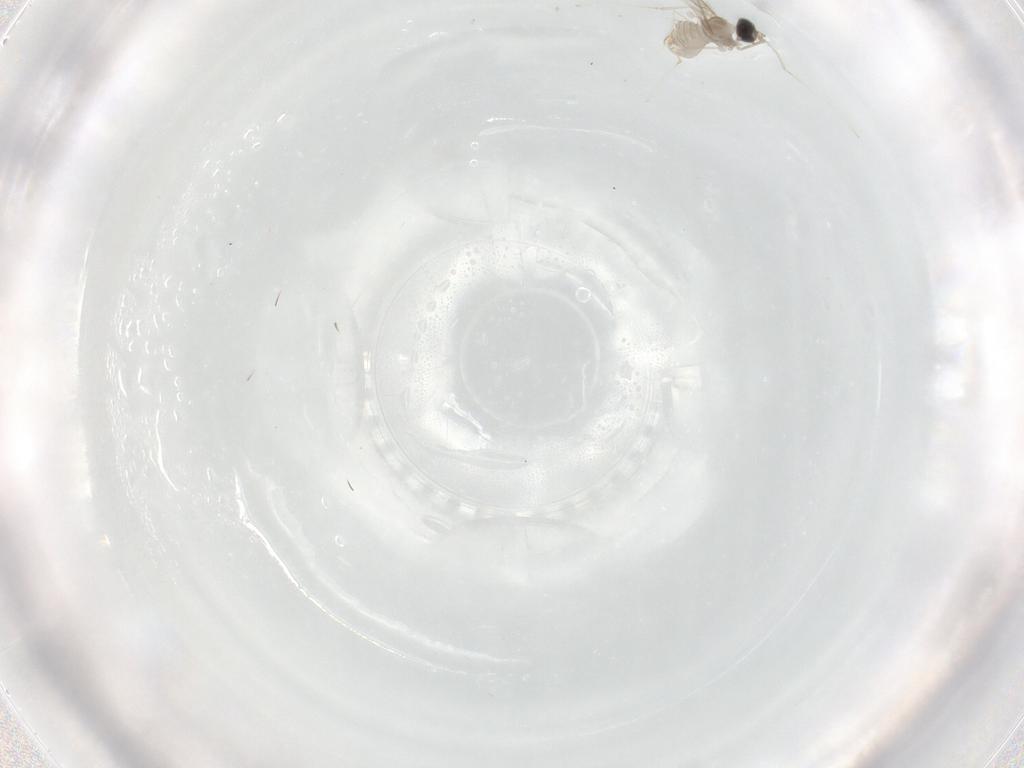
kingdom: Animalia
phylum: Arthropoda
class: Insecta
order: Diptera
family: Cecidomyiidae
